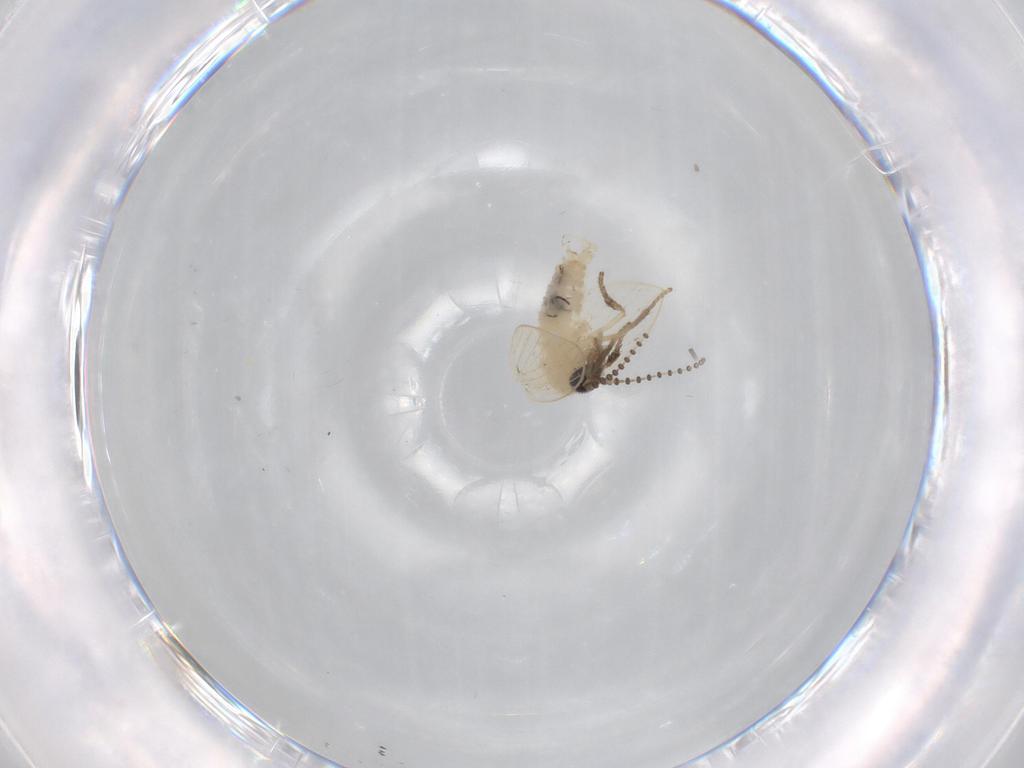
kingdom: Animalia
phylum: Arthropoda
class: Insecta
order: Diptera
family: Psychodidae
